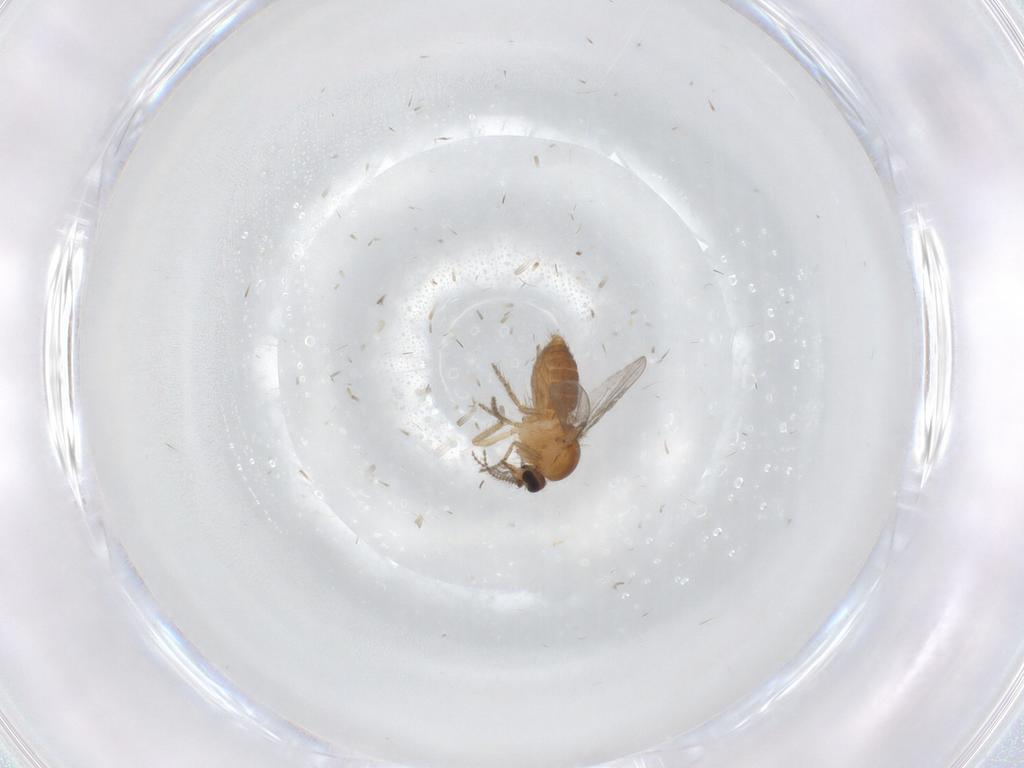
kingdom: Animalia
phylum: Arthropoda
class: Insecta
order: Diptera
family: Ceratopogonidae
